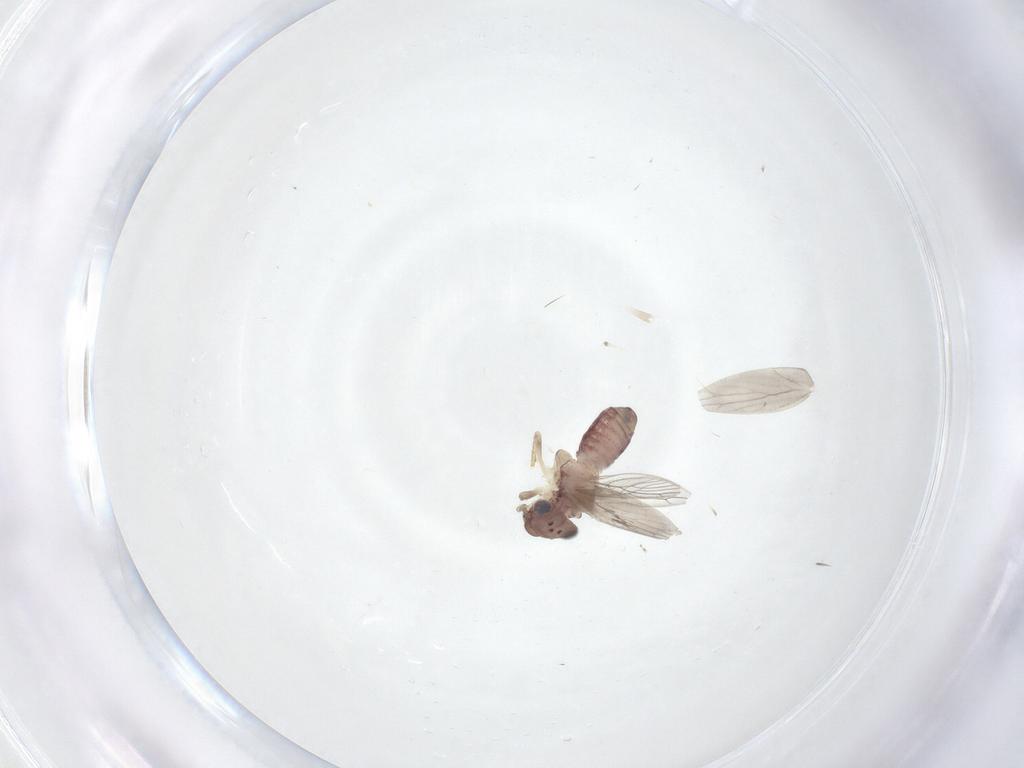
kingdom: Animalia
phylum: Arthropoda
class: Insecta
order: Psocodea
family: Lepidopsocidae
